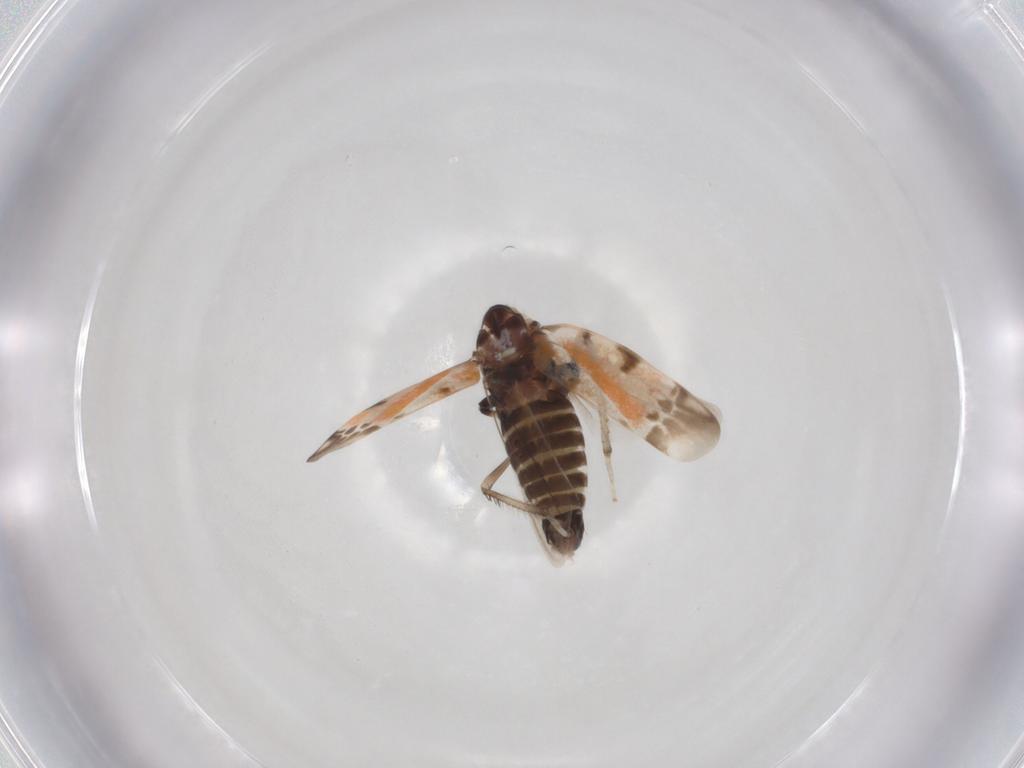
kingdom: Animalia
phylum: Arthropoda
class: Insecta
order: Hemiptera
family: Cicadellidae
